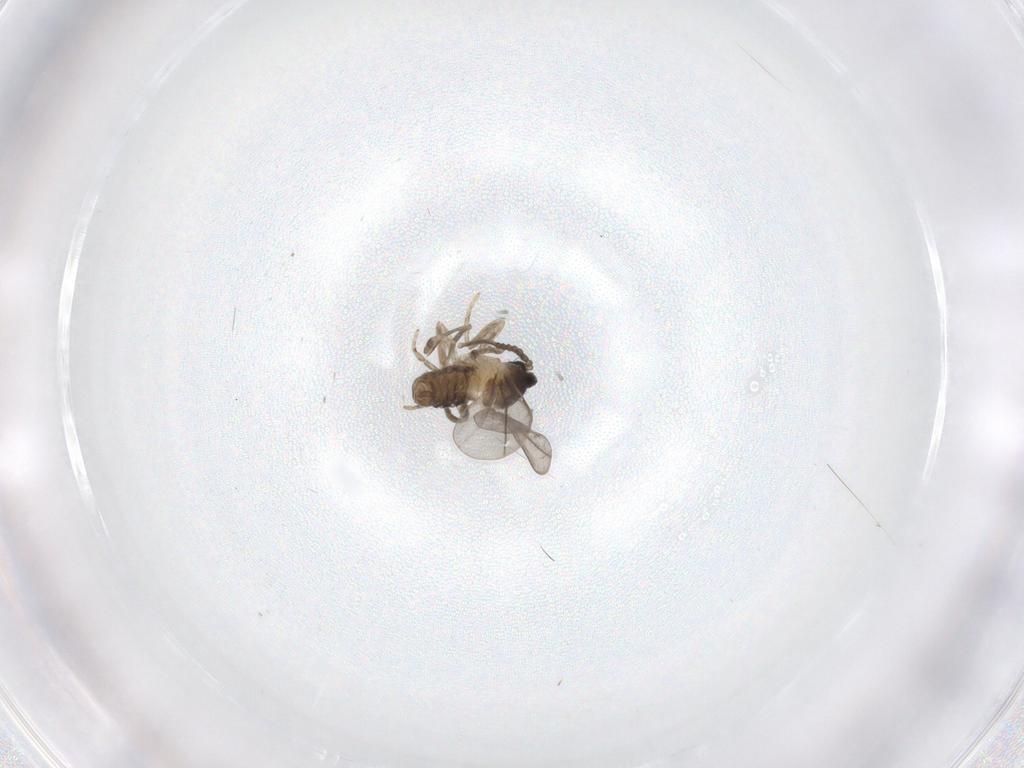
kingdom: Animalia
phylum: Arthropoda
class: Insecta
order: Diptera
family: Cecidomyiidae
